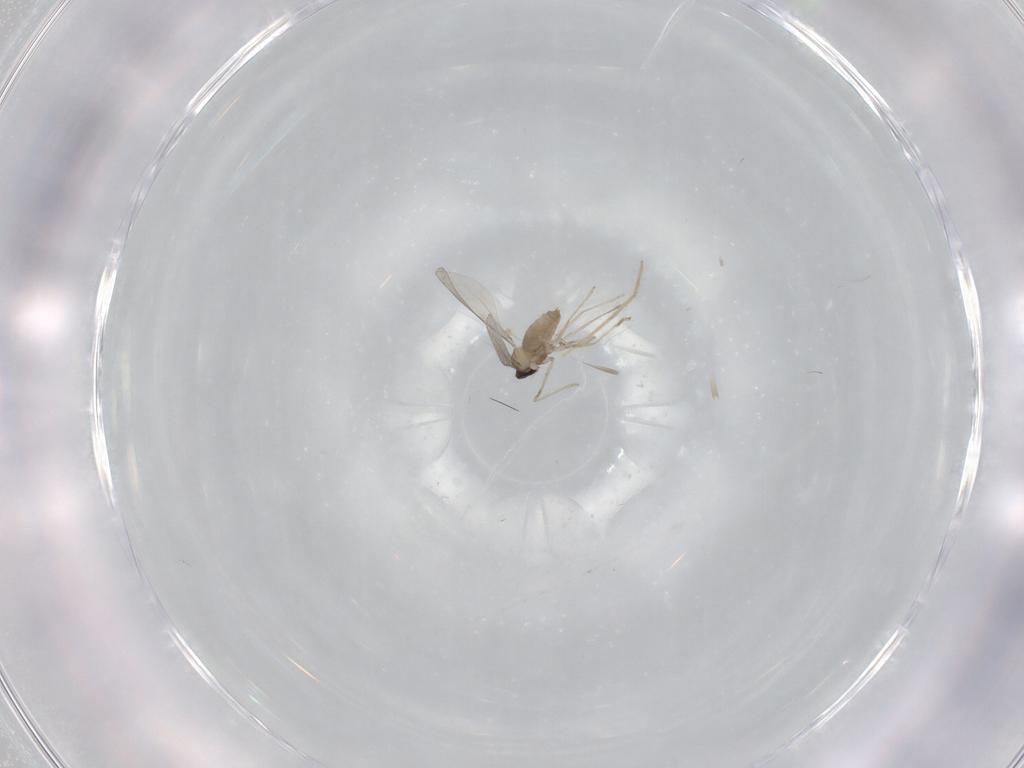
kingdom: Animalia
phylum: Arthropoda
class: Insecta
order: Diptera
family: Chironomidae
